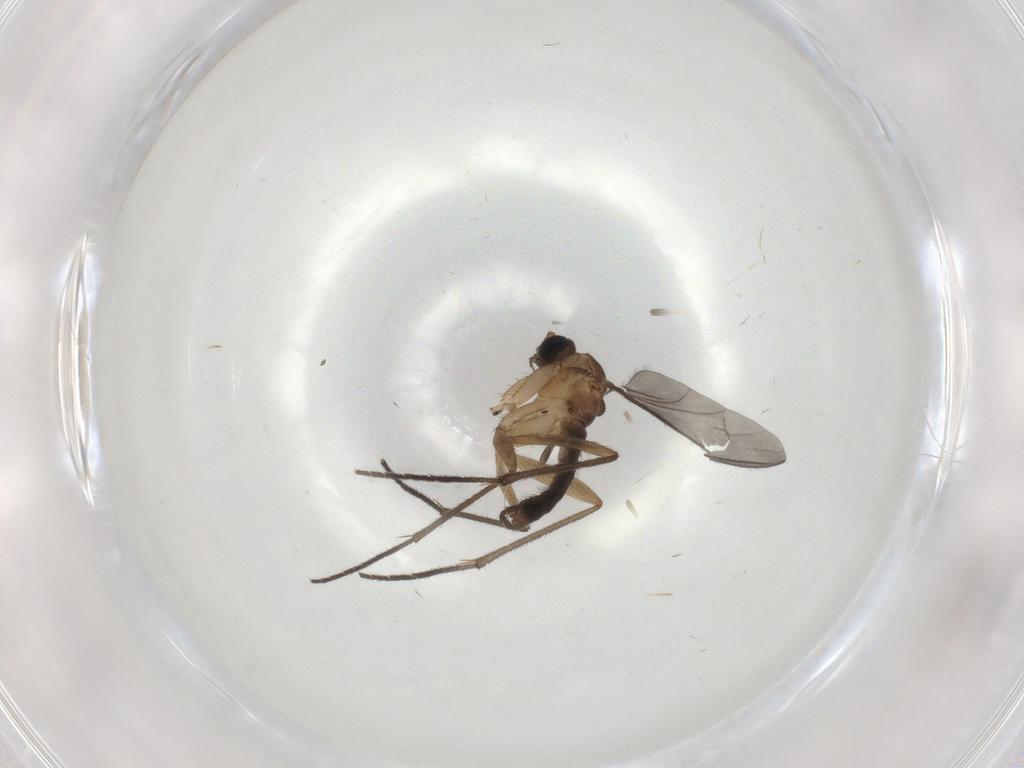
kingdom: Animalia
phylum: Arthropoda
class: Insecta
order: Diptera
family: Sciaridae
